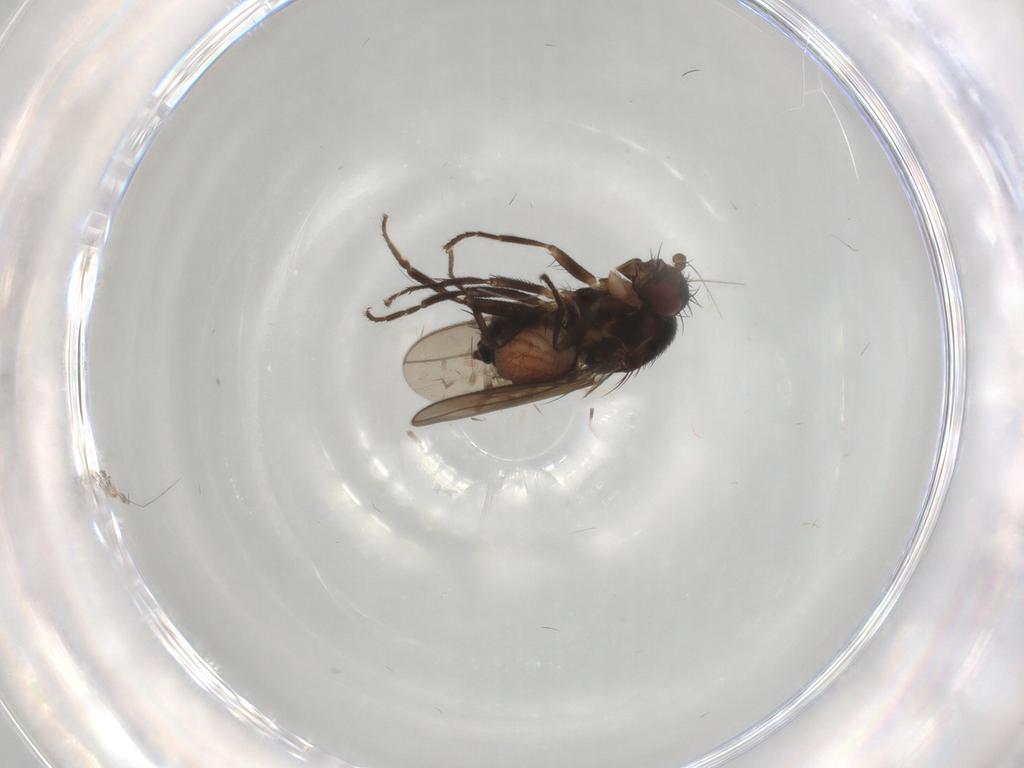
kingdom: Animalia
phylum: Arthropoda
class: Insecta
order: Diptera
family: Sphaeroceridae
